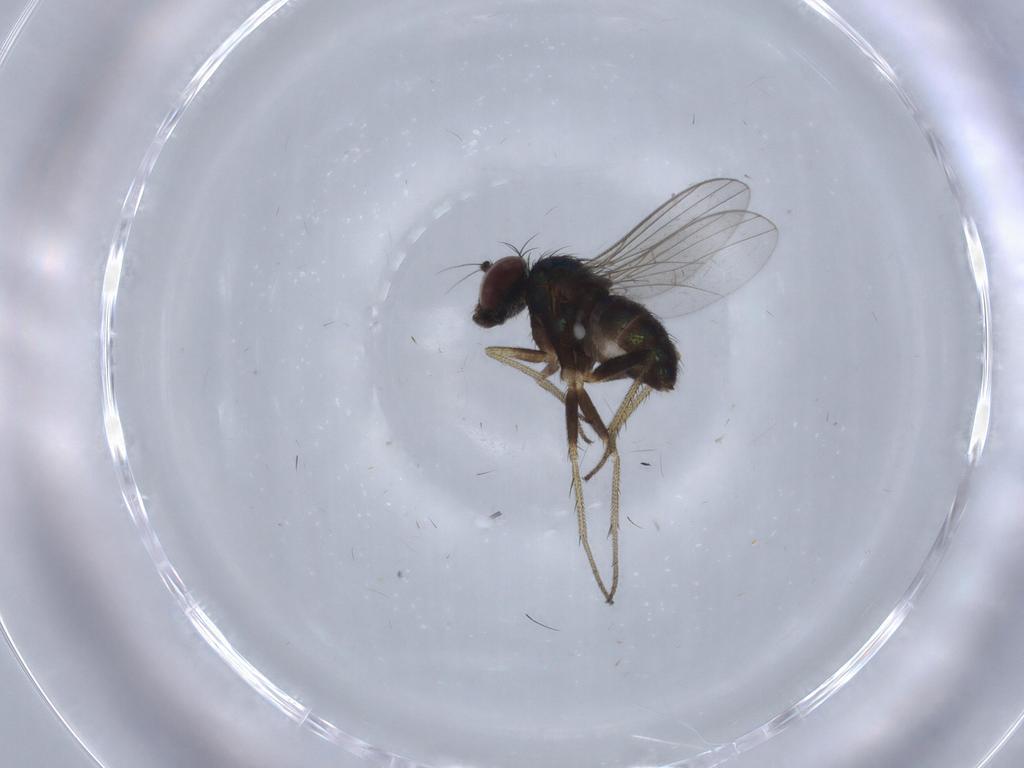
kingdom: Animalia
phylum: Arthropoda
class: Insecta
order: Diptera
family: Dolichopodidae
